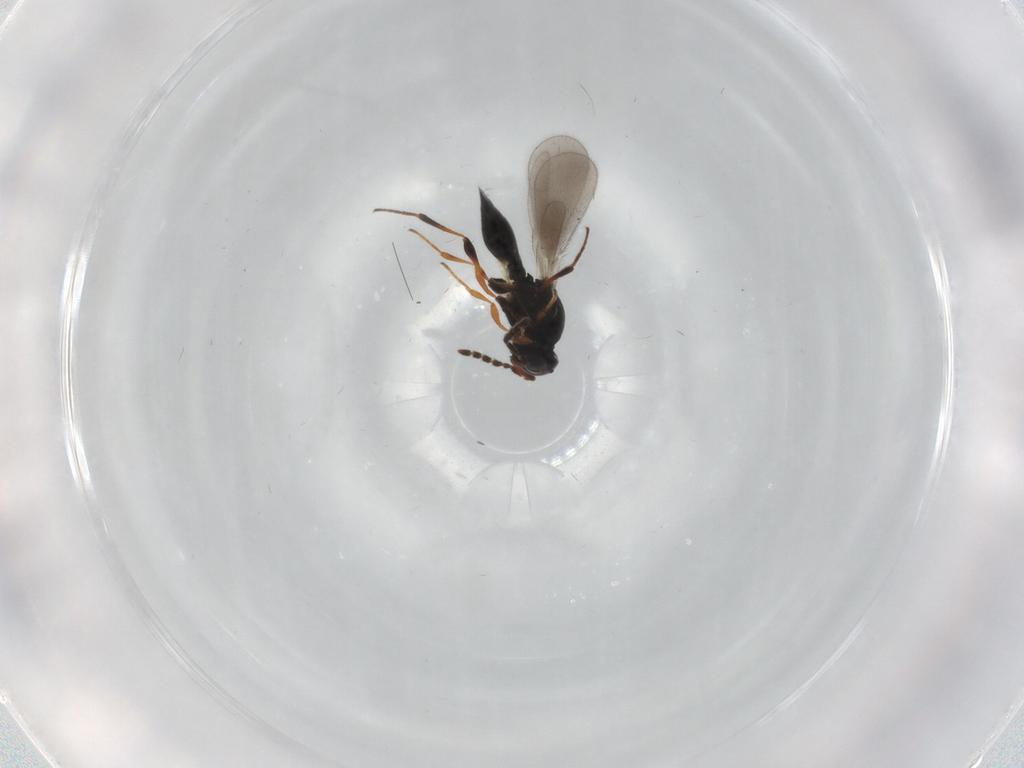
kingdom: Animalia
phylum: Arthropoda
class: Insecta
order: Hymenoptera
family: Platygastridae
